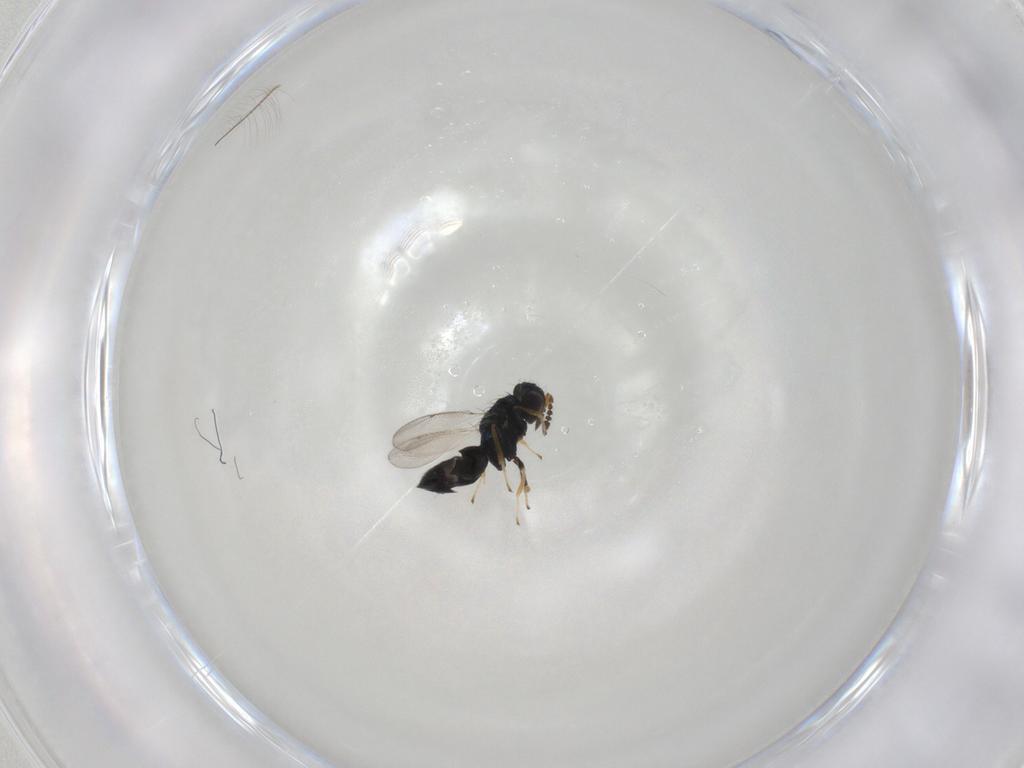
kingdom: Animalia
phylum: Arthropoda
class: Insecta
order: Hymenoptera
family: Eulophidae
